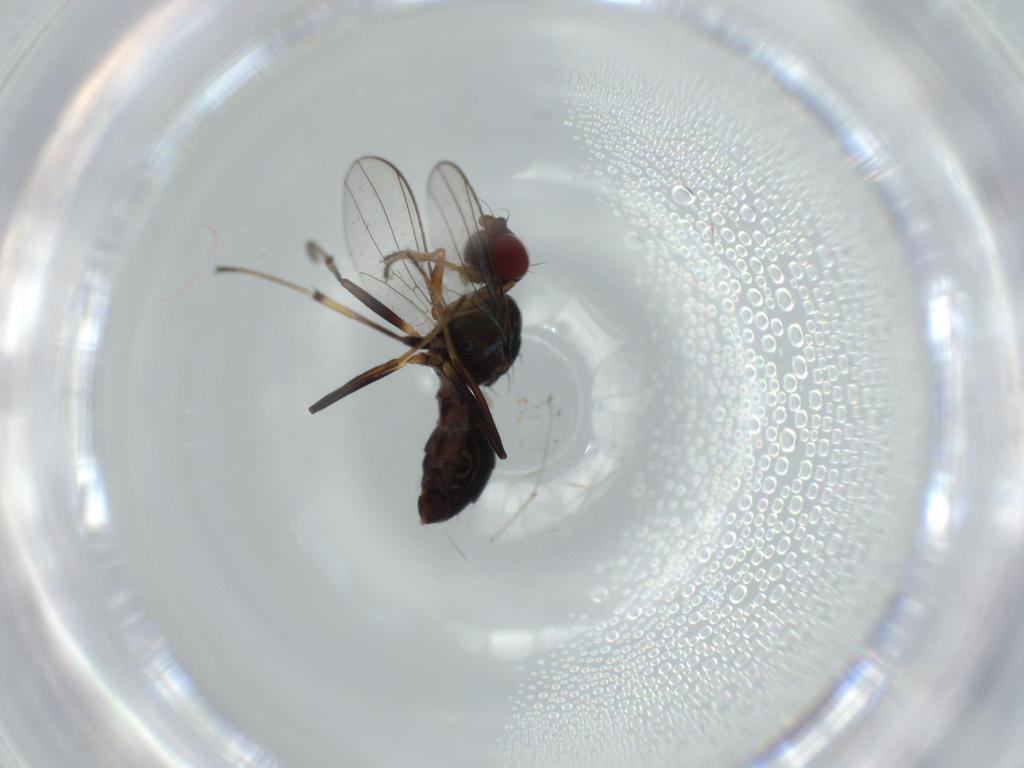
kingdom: Animalia
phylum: Arthropoda
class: Insecta
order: Diptera
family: Sepsidae
